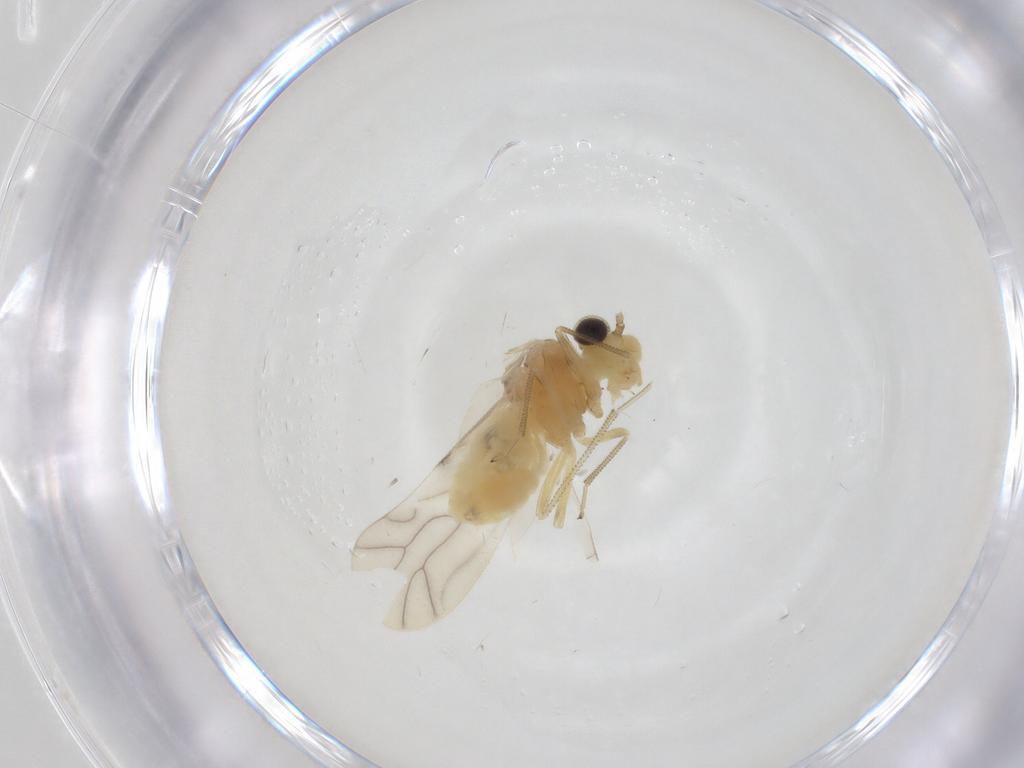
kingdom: Animalia
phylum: Arthropoda
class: Insecta
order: Psocodea
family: Caeciliusidae
